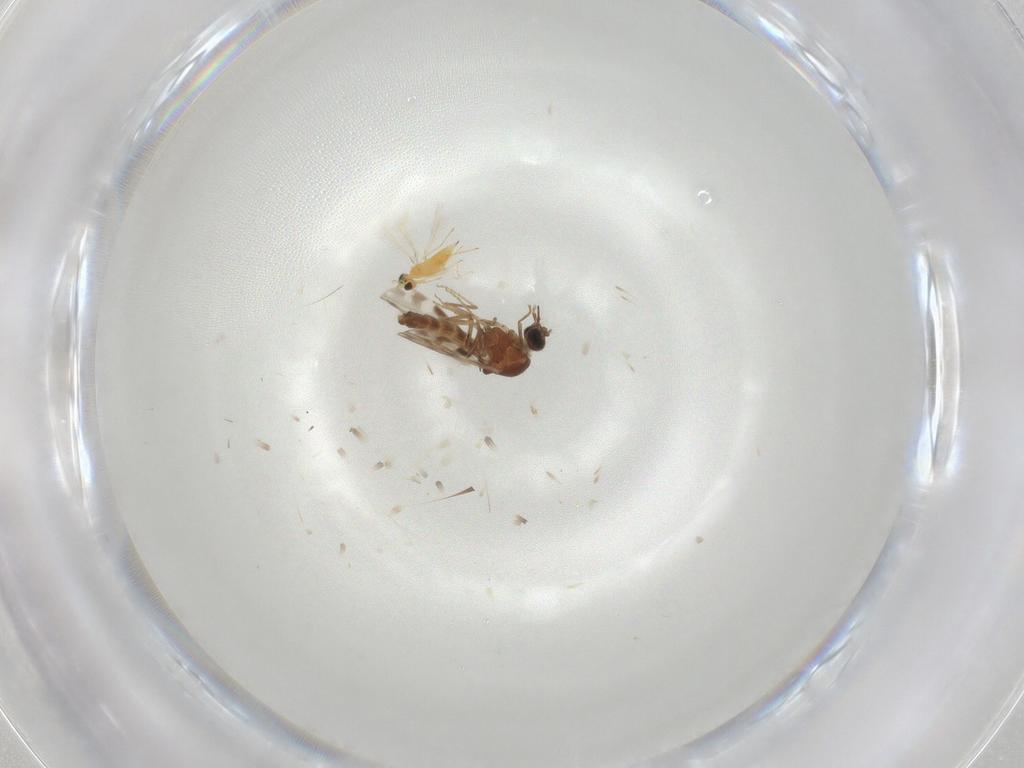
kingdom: Animalia
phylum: Arthropoda
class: Insecta
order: Hymenoptera
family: Mymaridae
